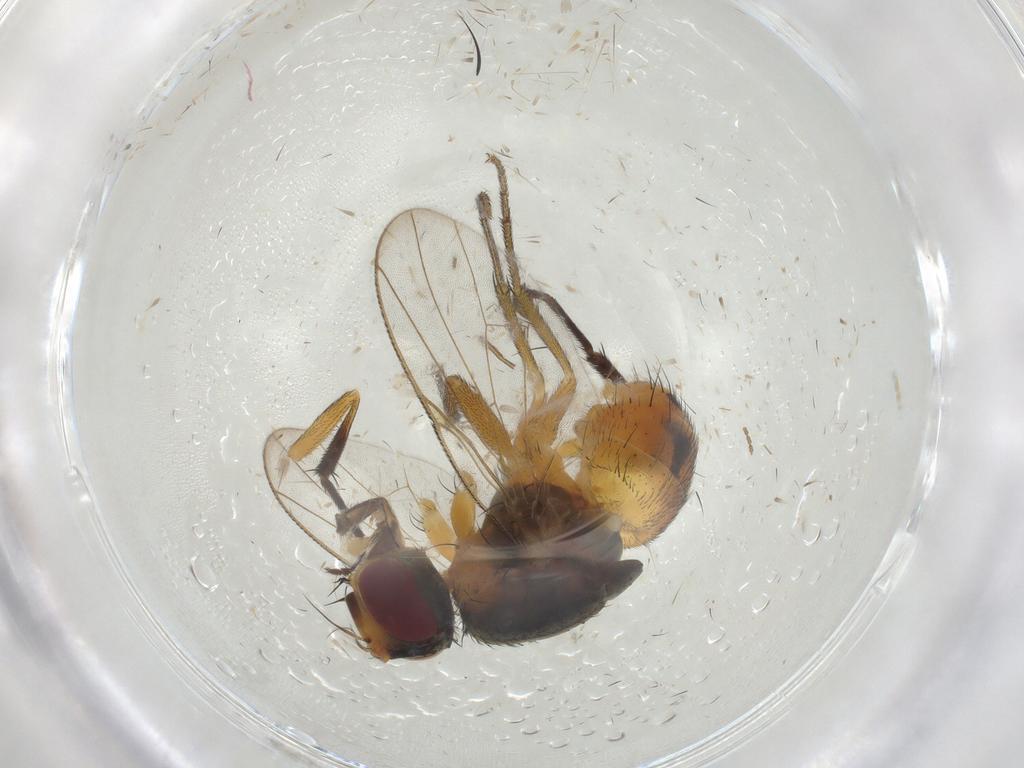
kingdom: Animalia
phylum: Arthropoda
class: Insecta
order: Diptera
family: Muscidae
